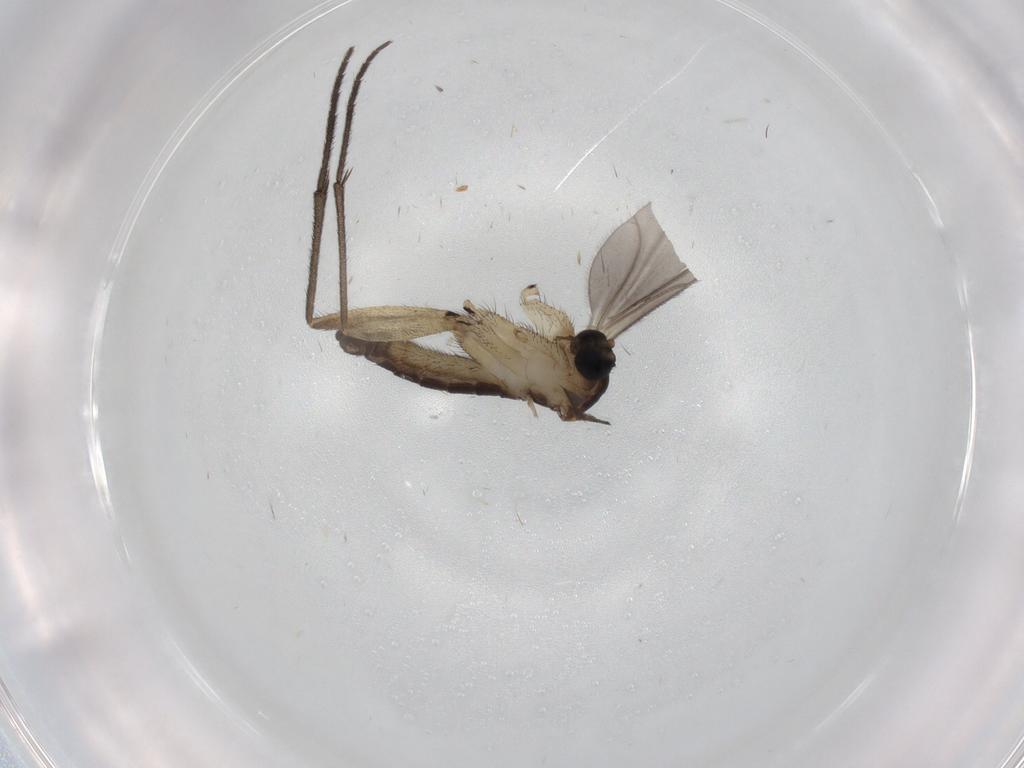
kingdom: Animalia
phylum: Arthropoda
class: Insecta
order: Diptera
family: Sciaridae
